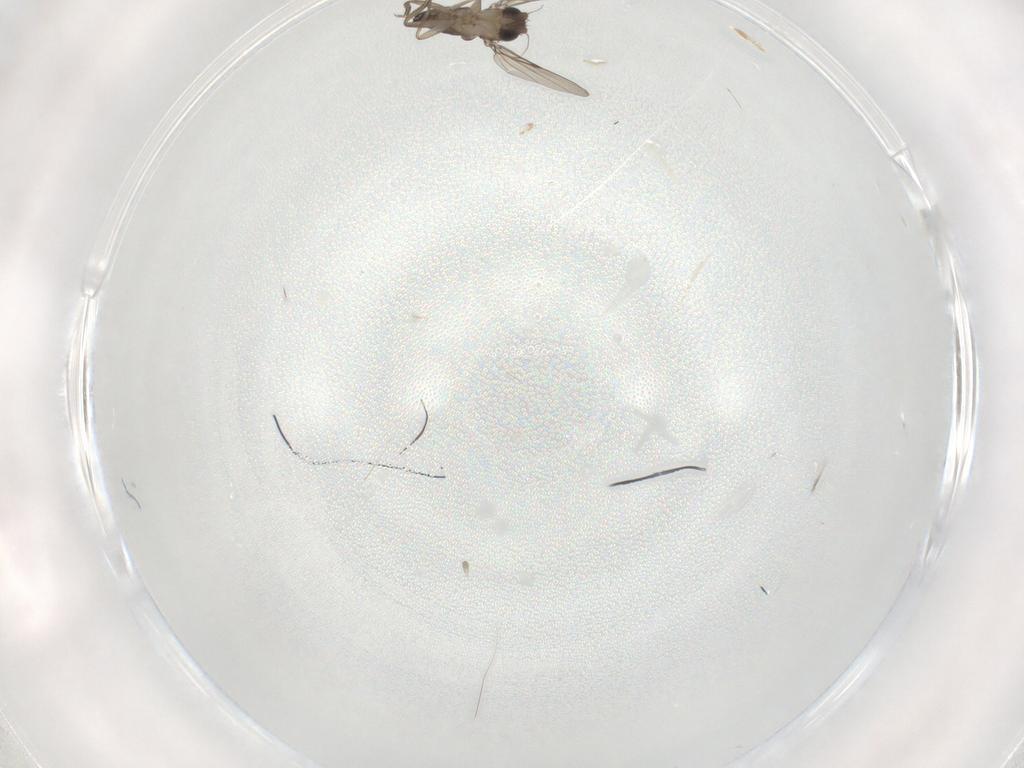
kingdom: Animalia
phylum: Arthropoda
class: Insecta
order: Diptera
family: Phoridae
